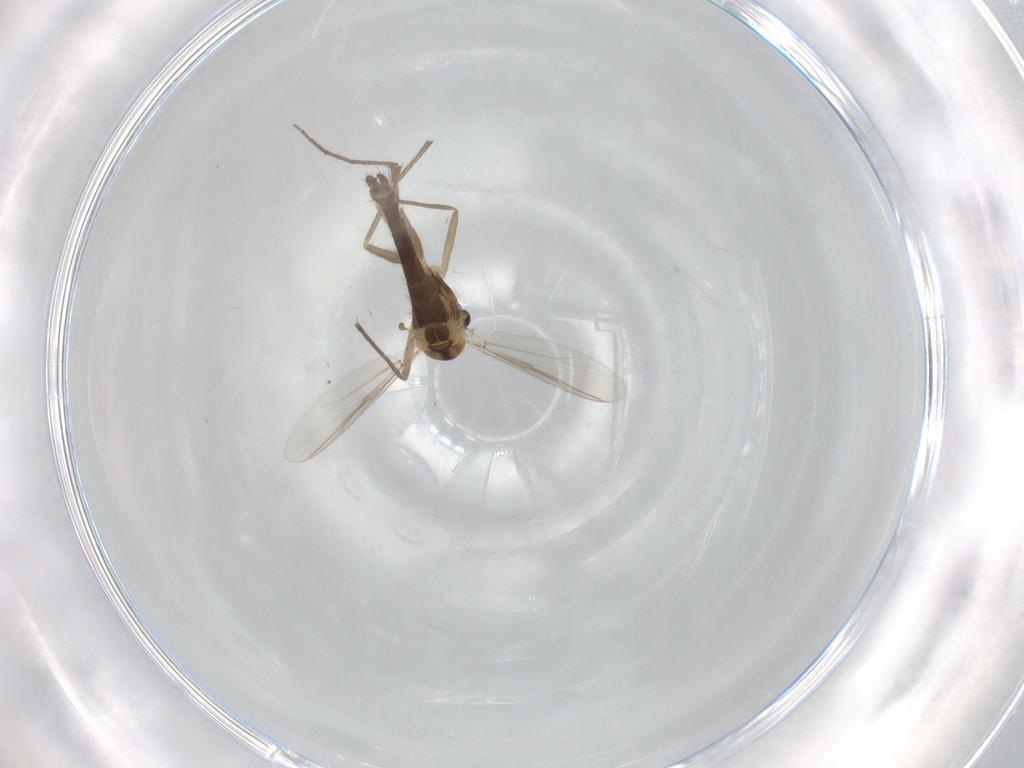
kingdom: Animalia
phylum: Arthropoda
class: Insecta
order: Diptera
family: Chironomidae
